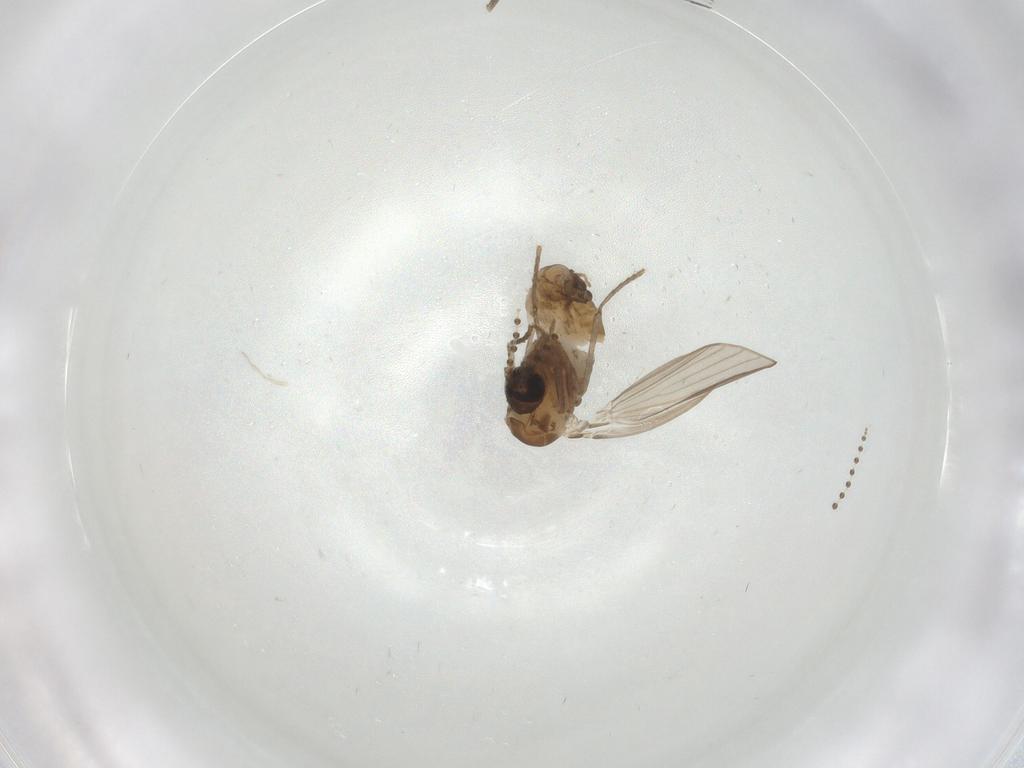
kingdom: Animalia
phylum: Arthropoda
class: Insecta
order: Diptera
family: Psychodidae
